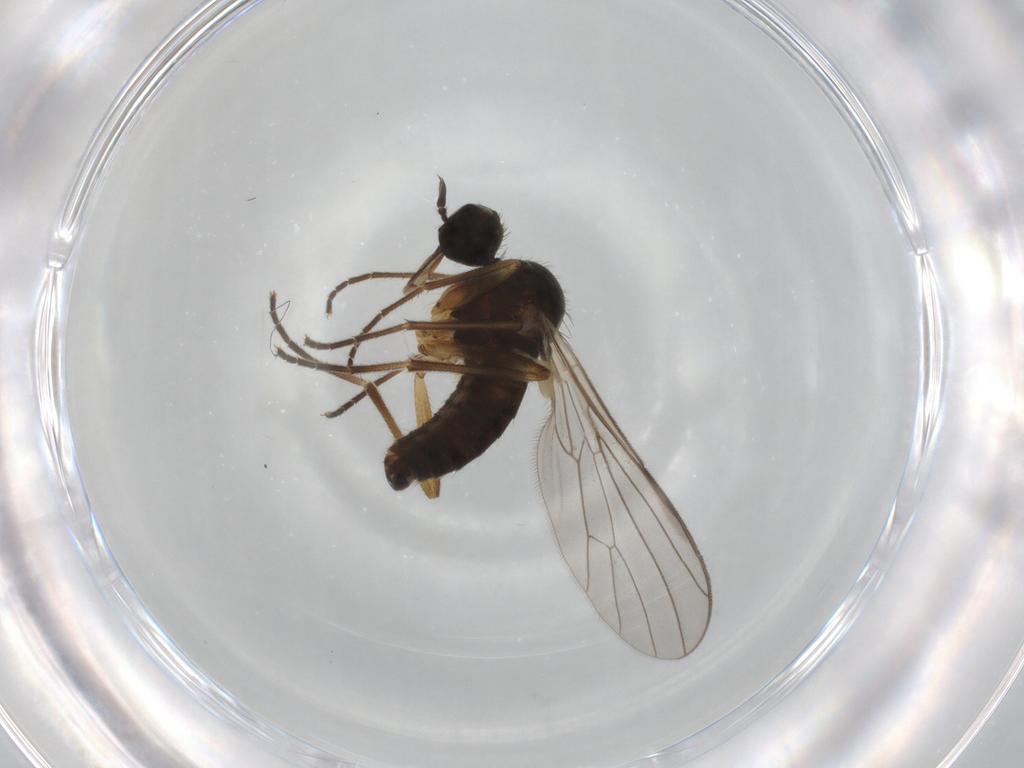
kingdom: Animalia
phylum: Arthropoda
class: Insecta
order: Diptera
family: Empididae
